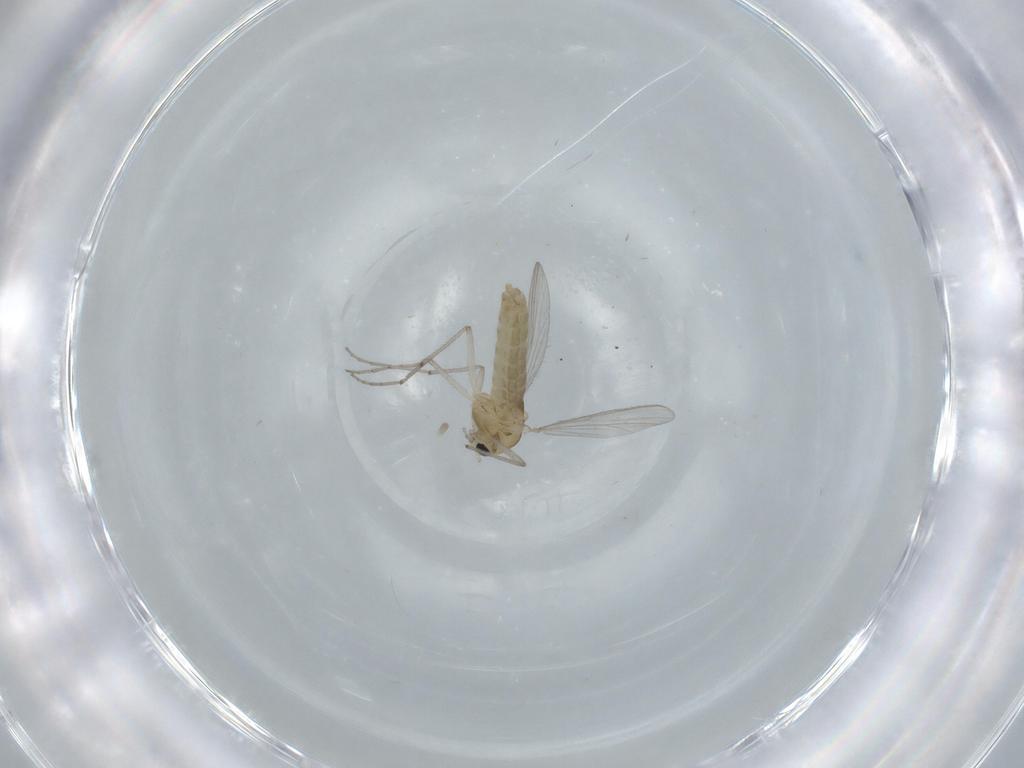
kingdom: Animalia
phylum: Arthropoda
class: Insecta
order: Diptera
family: Chironomidae
